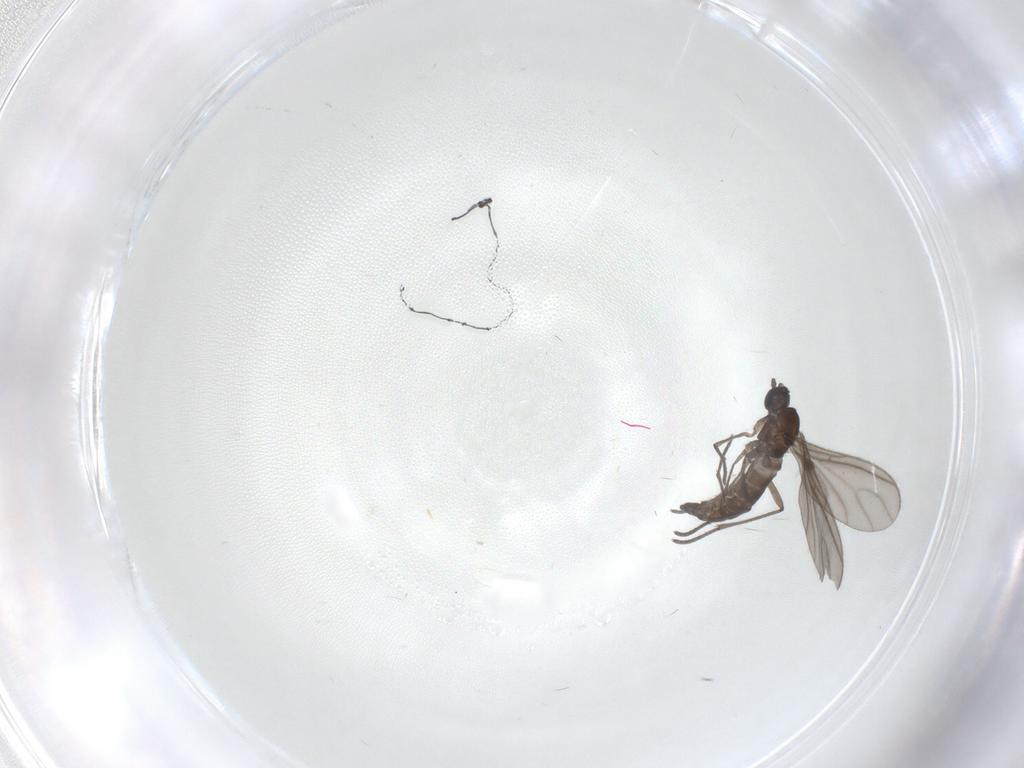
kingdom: Animalia
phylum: Arthropoda
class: Insecta
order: Diptera
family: Sciaridae
